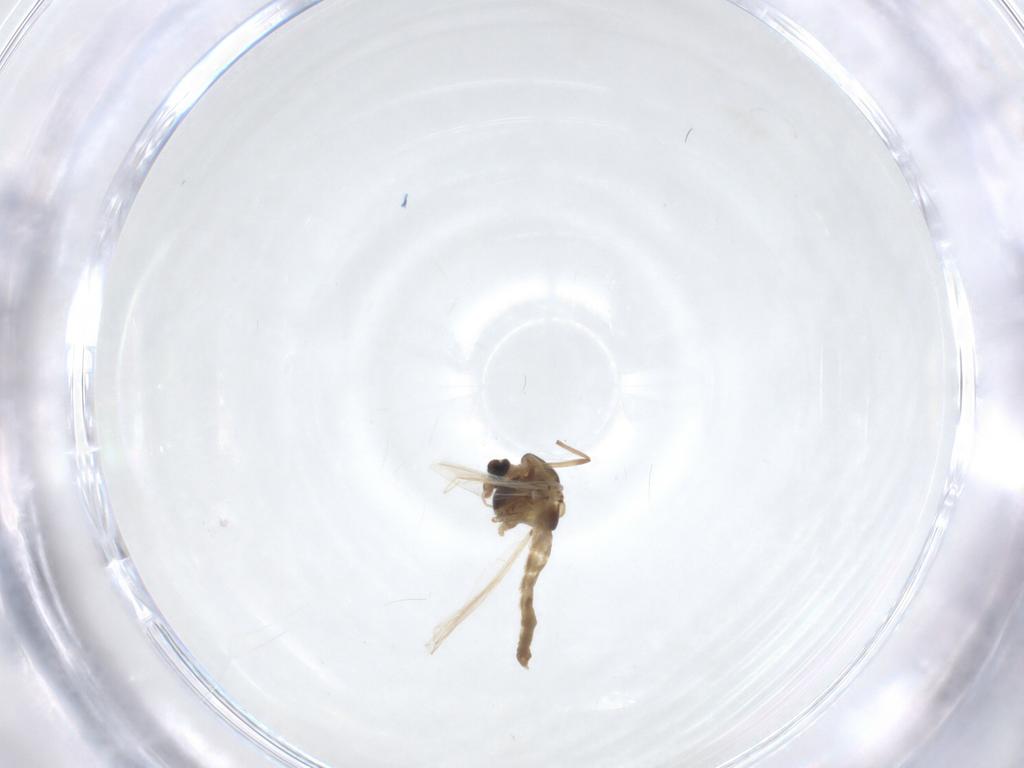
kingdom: Animalia
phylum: Arthropoda
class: Insecta
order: Diptera
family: Chironomidae
